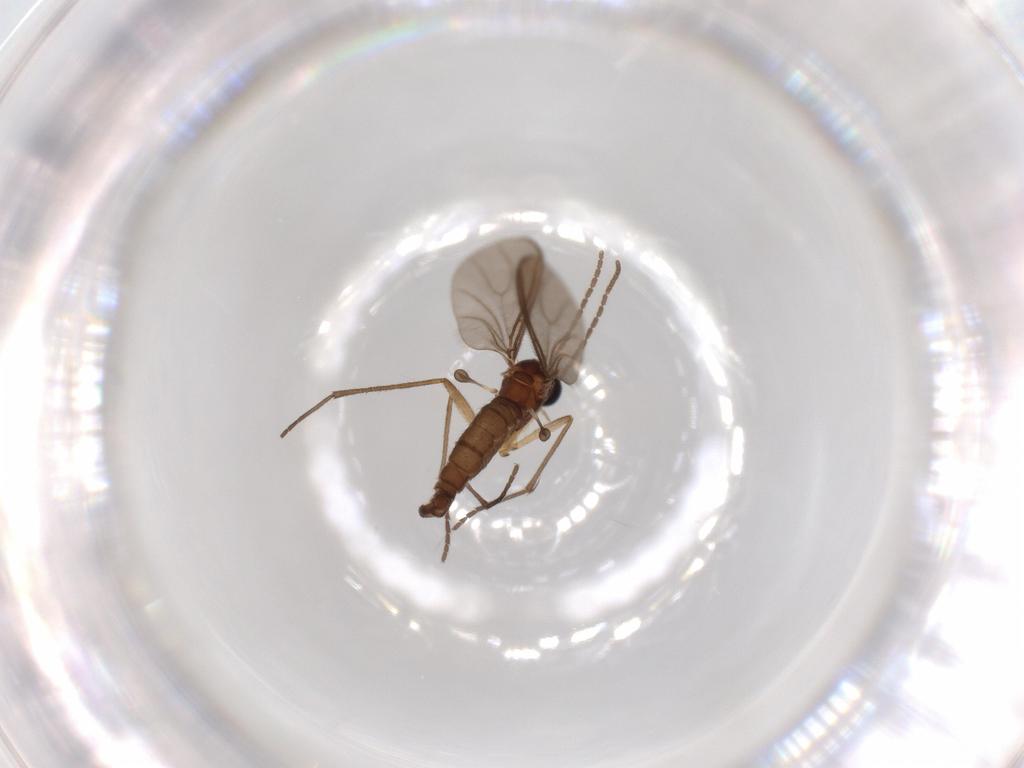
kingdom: Animalia
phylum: Arthropoda
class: Insecta
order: Diptera
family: Sciaridae
